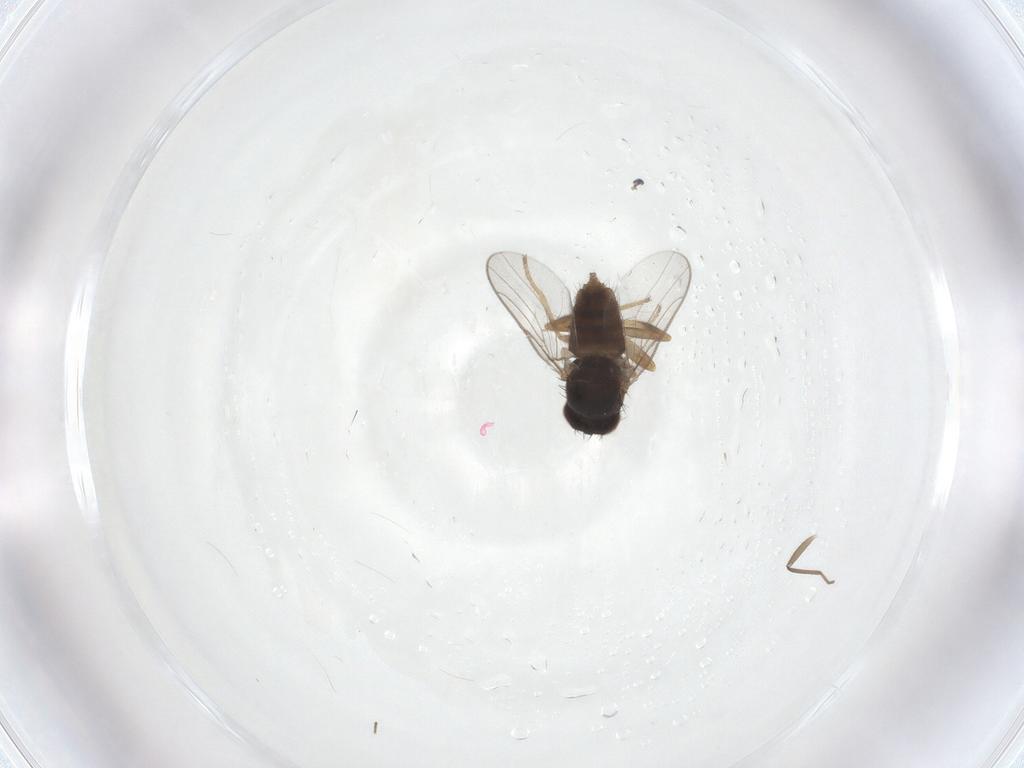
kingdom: Animalia
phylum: Arthropoda
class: Insecta
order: Diptera
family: Chloropidae
